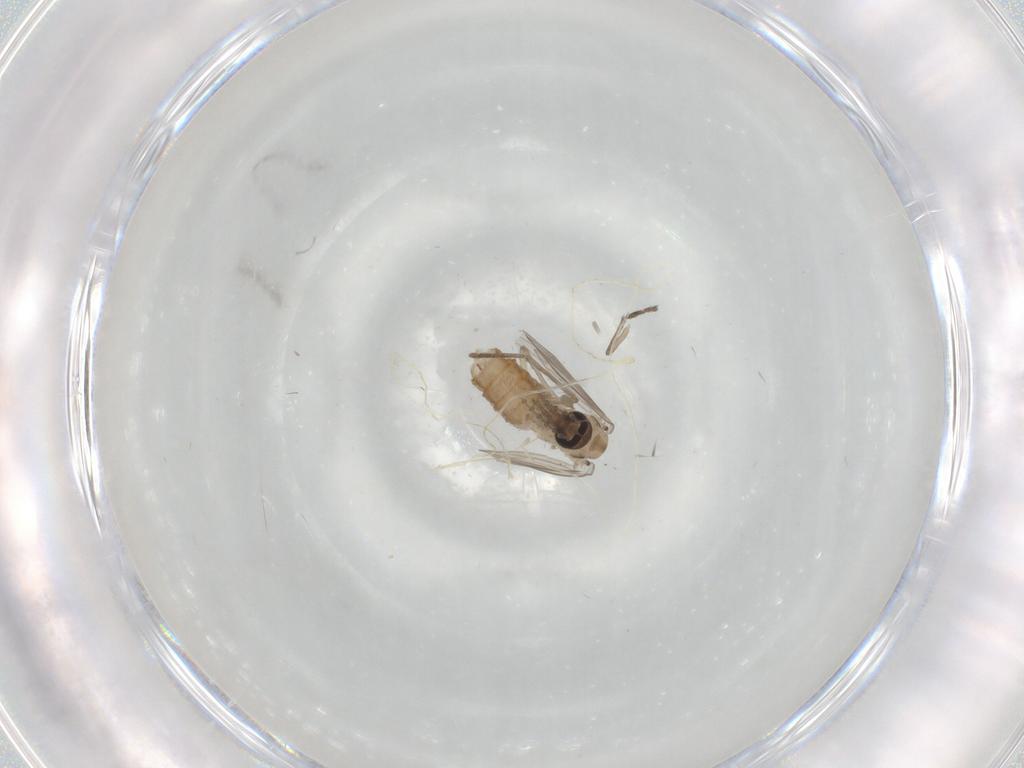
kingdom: Animalia
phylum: Arthropoda
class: Insecta
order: Diptera
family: Psychodidae
